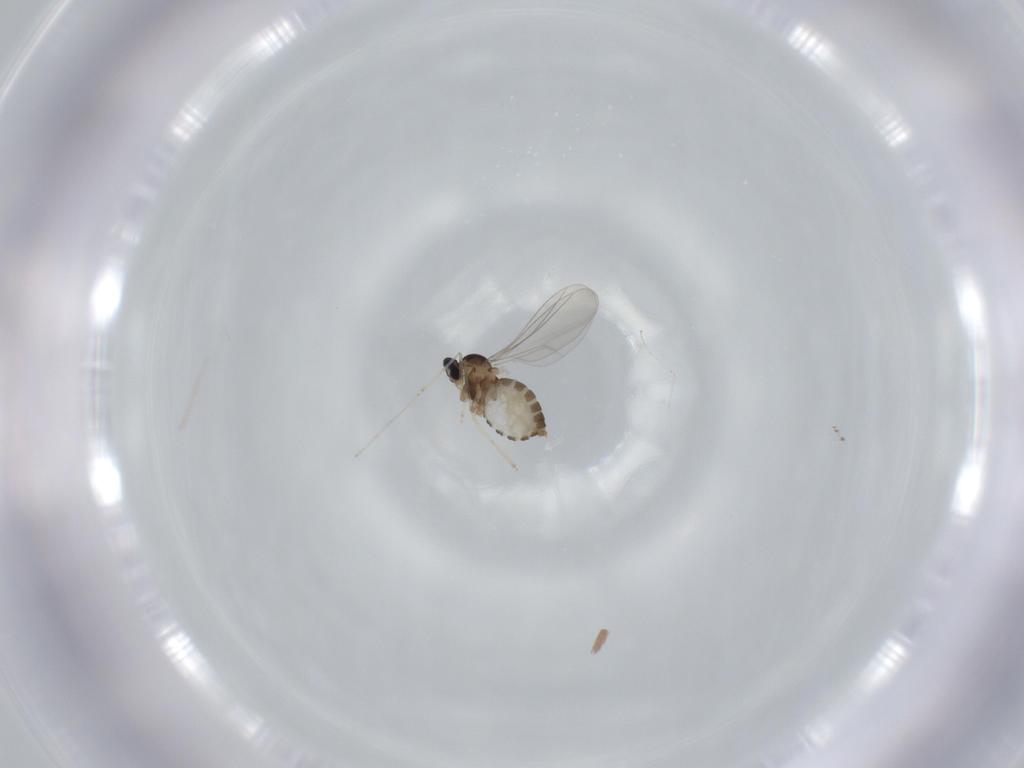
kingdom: Animalia
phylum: Arthropoda
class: Insecta
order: Diptera
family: Cecidomyiidae
